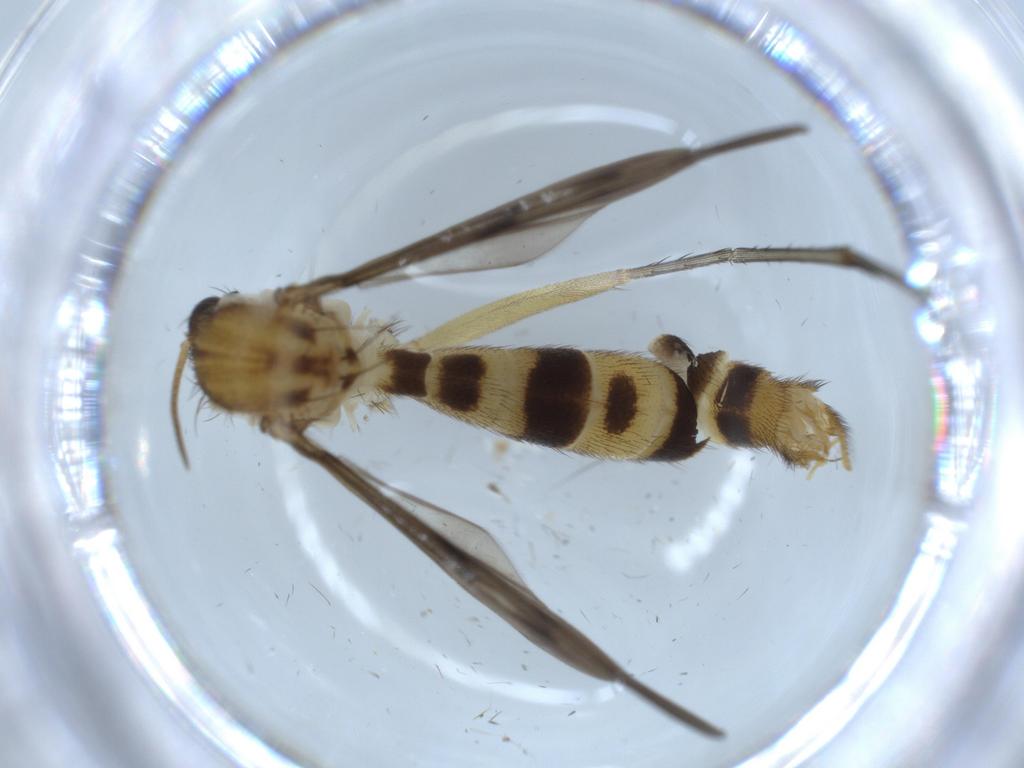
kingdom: Animalia
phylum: Arthropoda
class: Insecta
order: Diptera
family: Mycetophilidae
